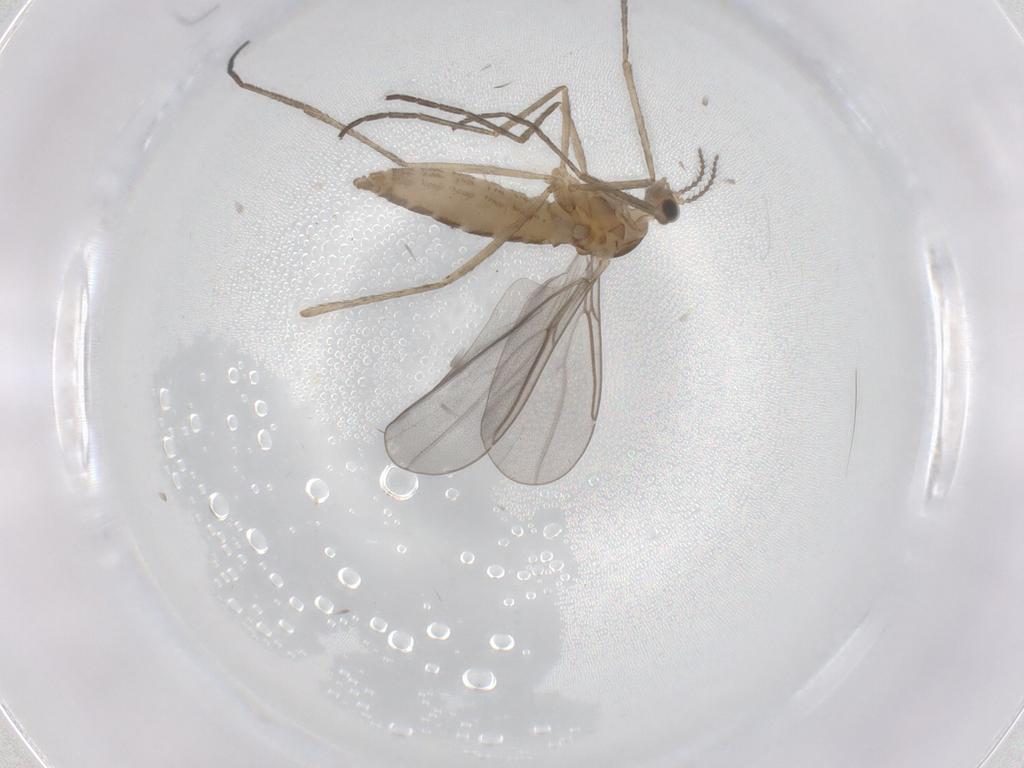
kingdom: Animalia
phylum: Arthropoda
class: Insecta
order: Diptera
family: Cecidomyiidae
